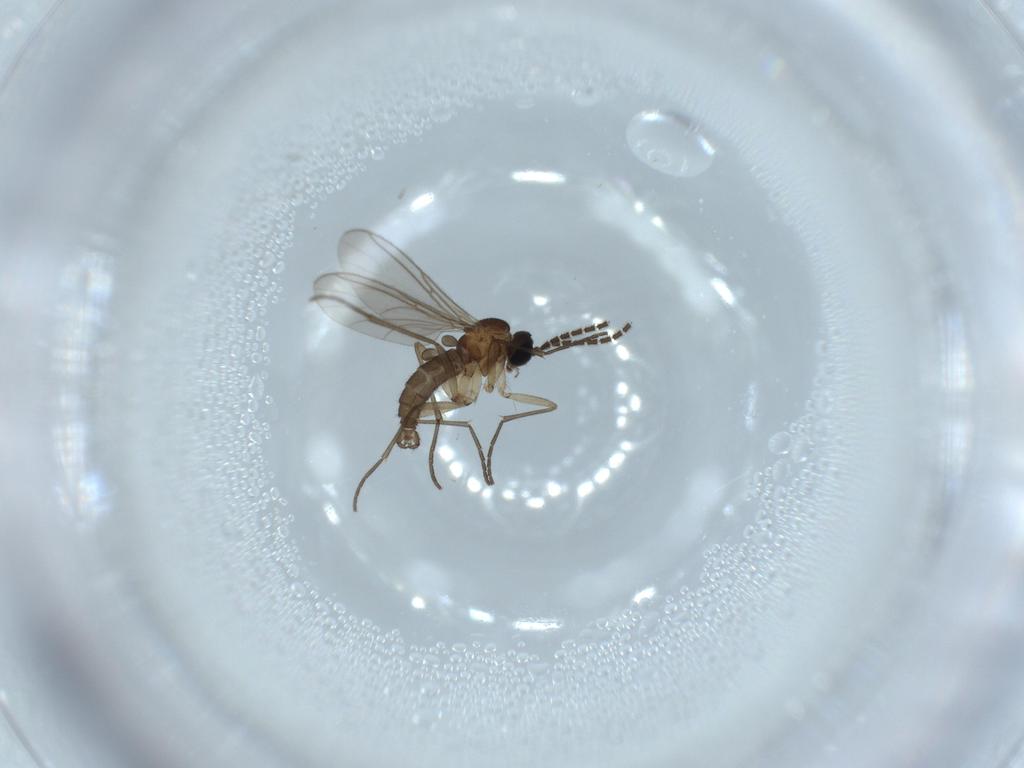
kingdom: Animalia
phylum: Arthropoda
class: Insecta
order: Diptera
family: Sciaridae
